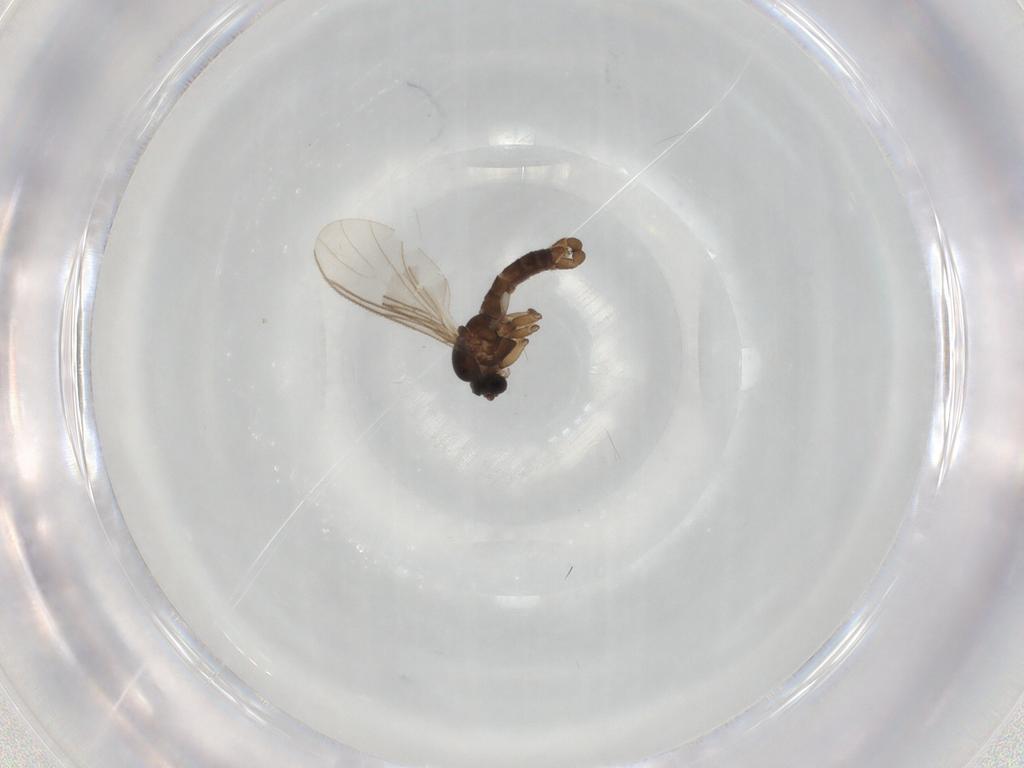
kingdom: Animalia
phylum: Arthropoda
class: Insecta
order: Diptera
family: Sciaridae
